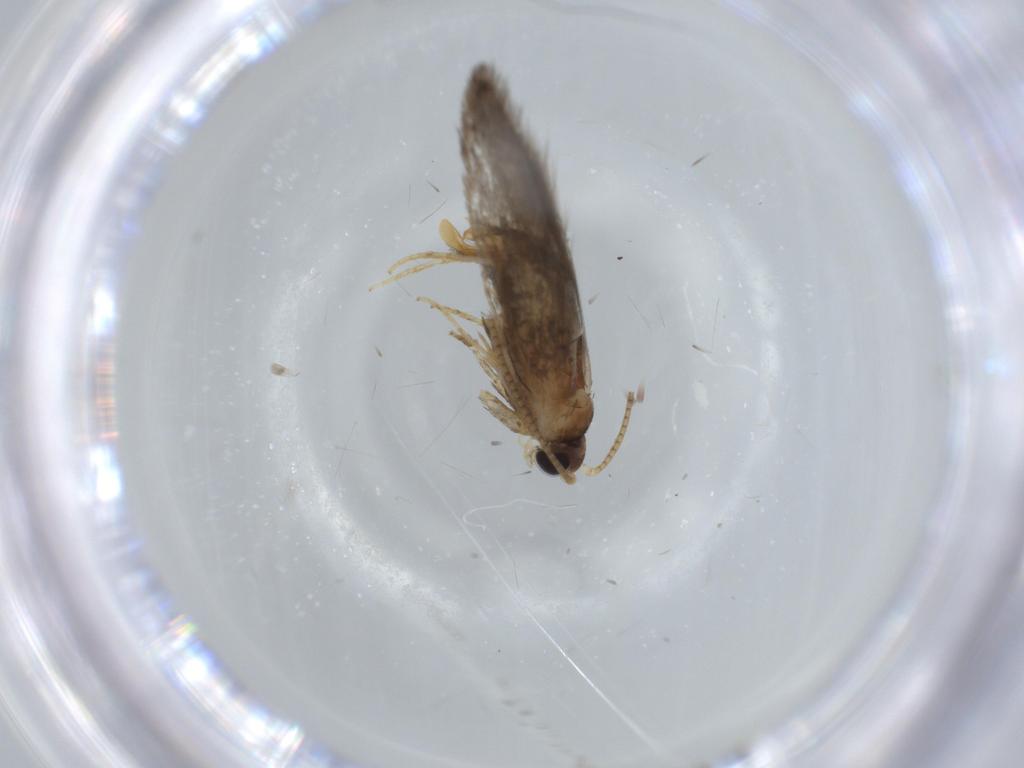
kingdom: Animalia
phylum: Arthropoda
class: Insecta
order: Lepidoptera
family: Tineidae
